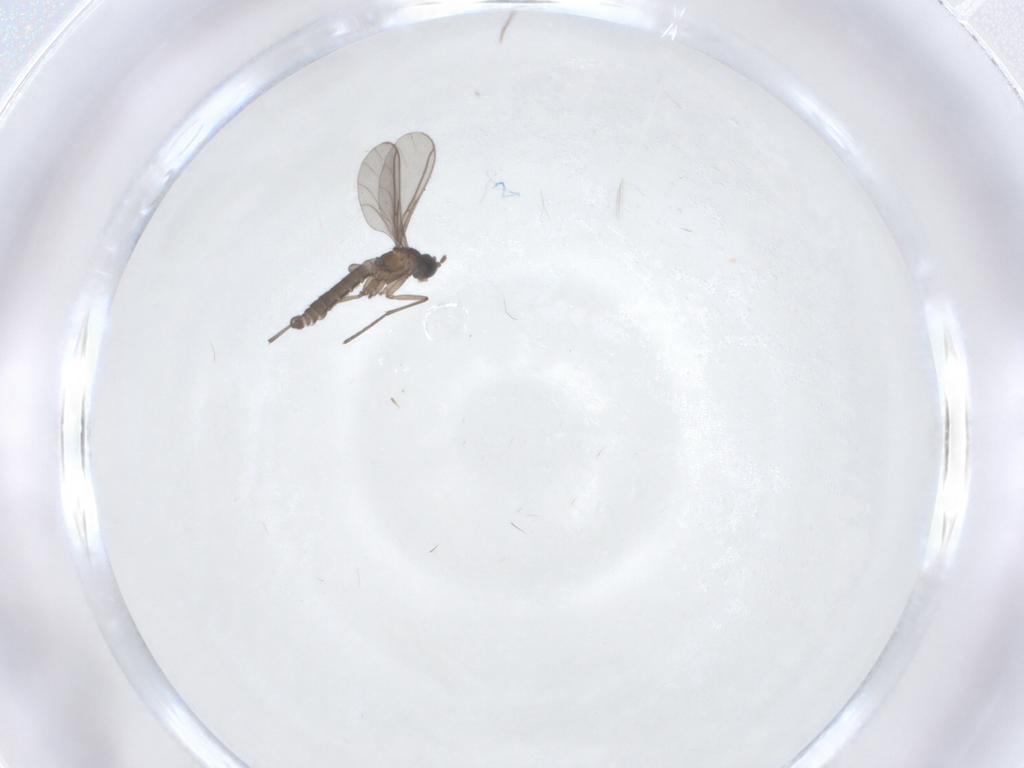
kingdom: Animalia
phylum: Arthropoda
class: Insecta
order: Diptera
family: Cecidomyiidae
